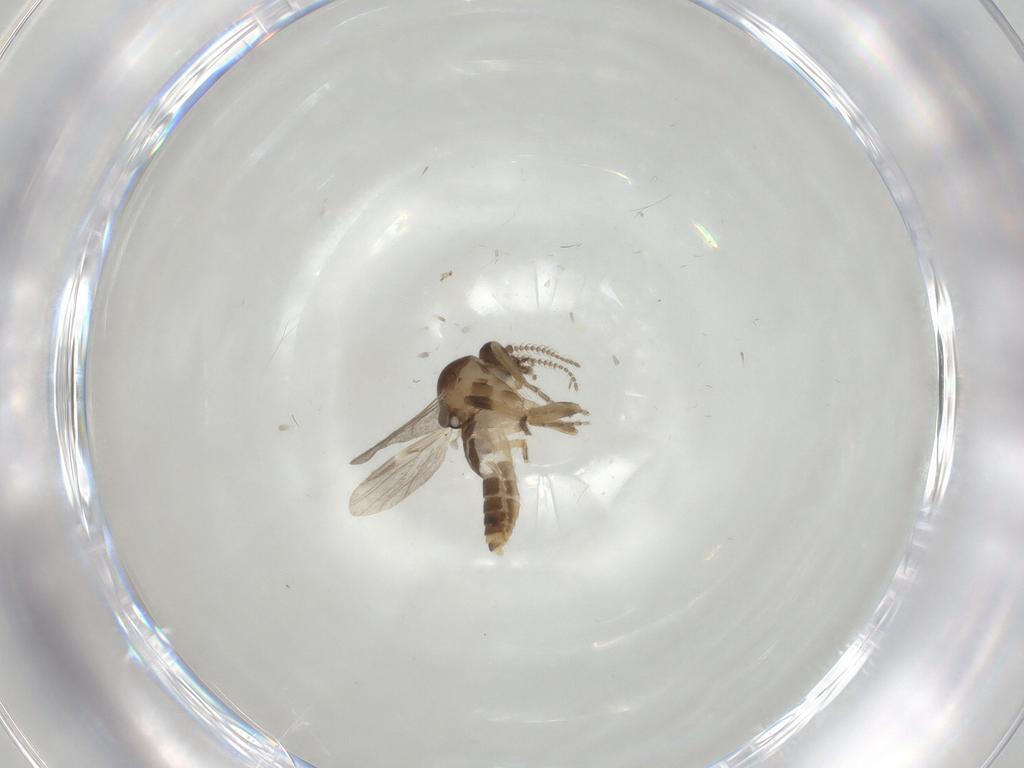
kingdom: Animalia
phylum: Arthropoda
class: Insecta
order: Diptera
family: Ceratopogonidae
